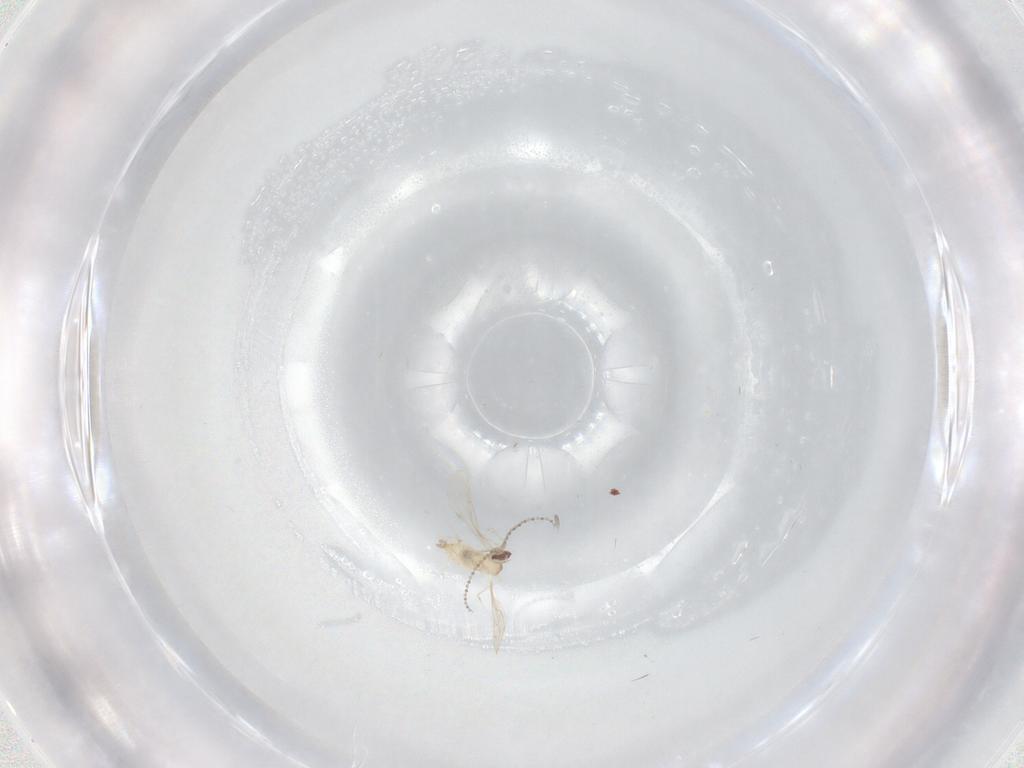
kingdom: Animalia
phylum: Arthropoda
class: Insecta
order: Diptera
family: Cecidomyiidae
